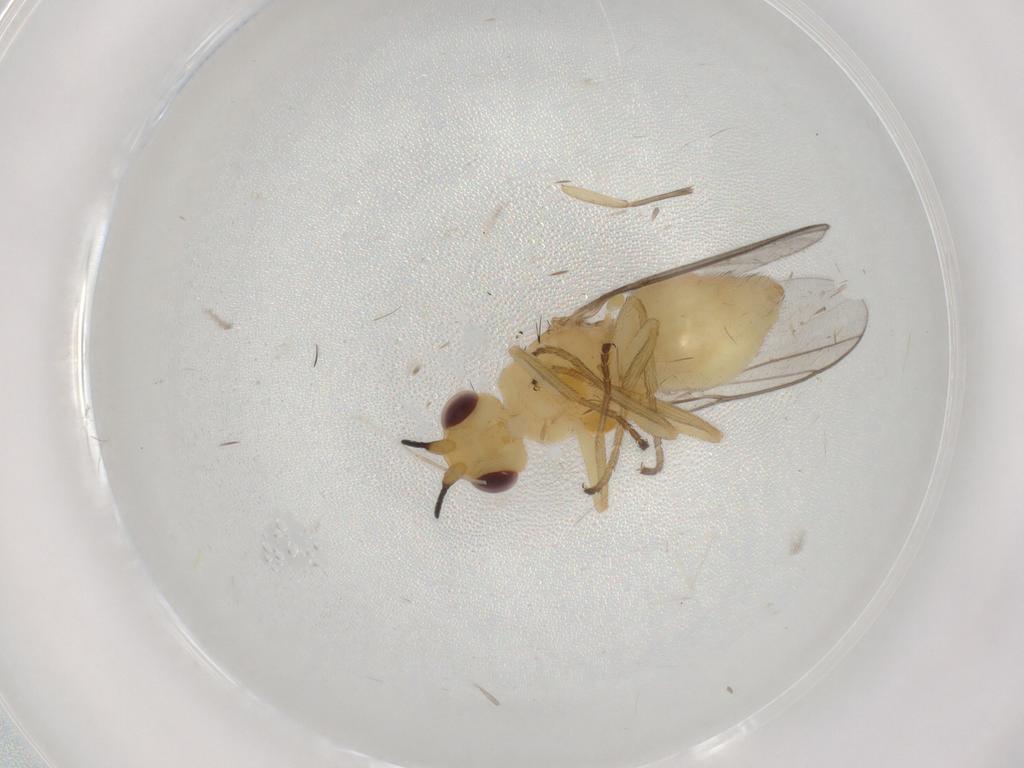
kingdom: Animalia
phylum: Arthropoda
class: Insecta
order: Diptera
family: Chloropidae
